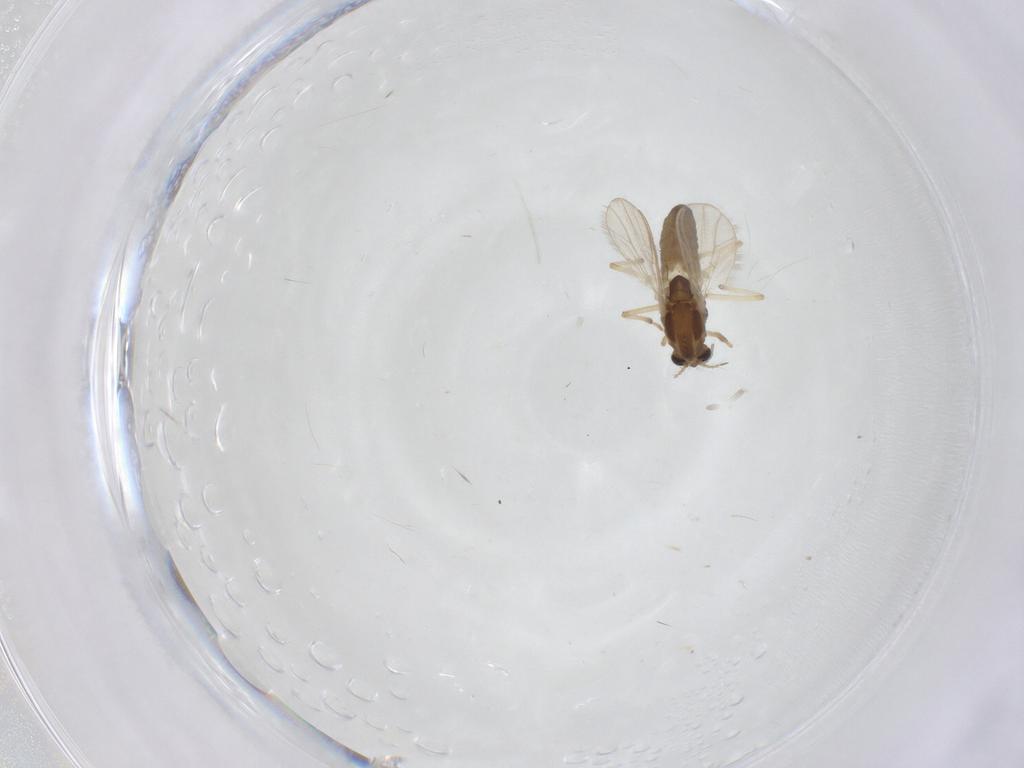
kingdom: Animalia
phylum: Arthropoda
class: Insecta
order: Diptera
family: Chironomidae
